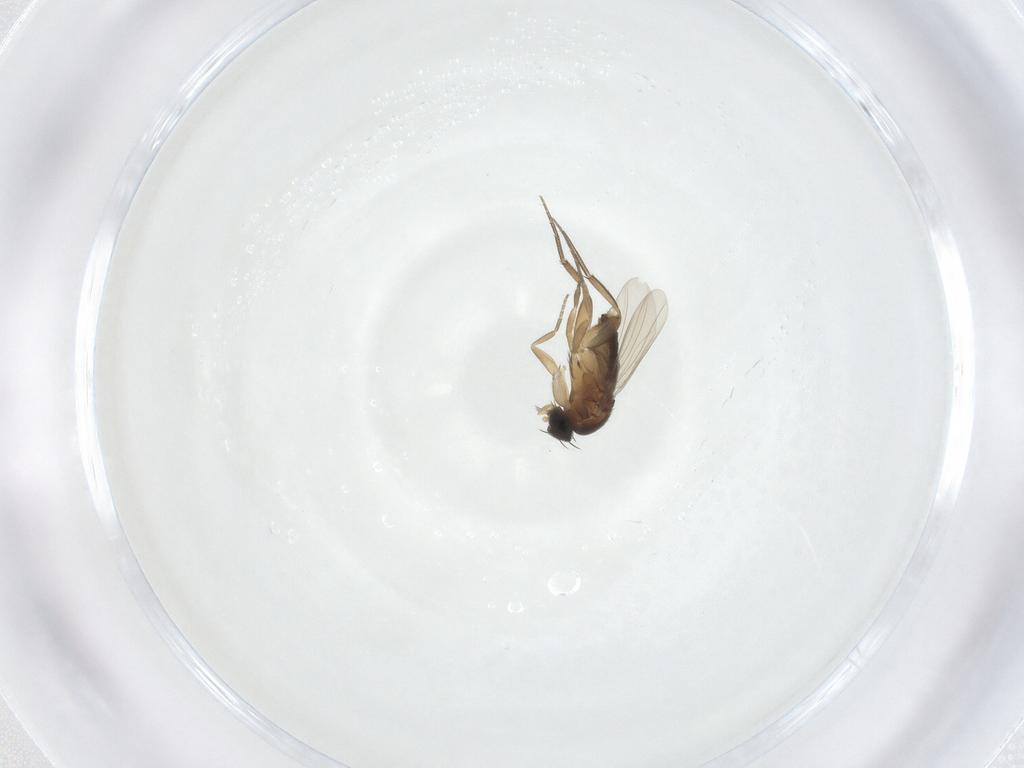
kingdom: Animalia
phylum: Arthropoda
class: Insecta
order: Diptera
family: Phoridae
